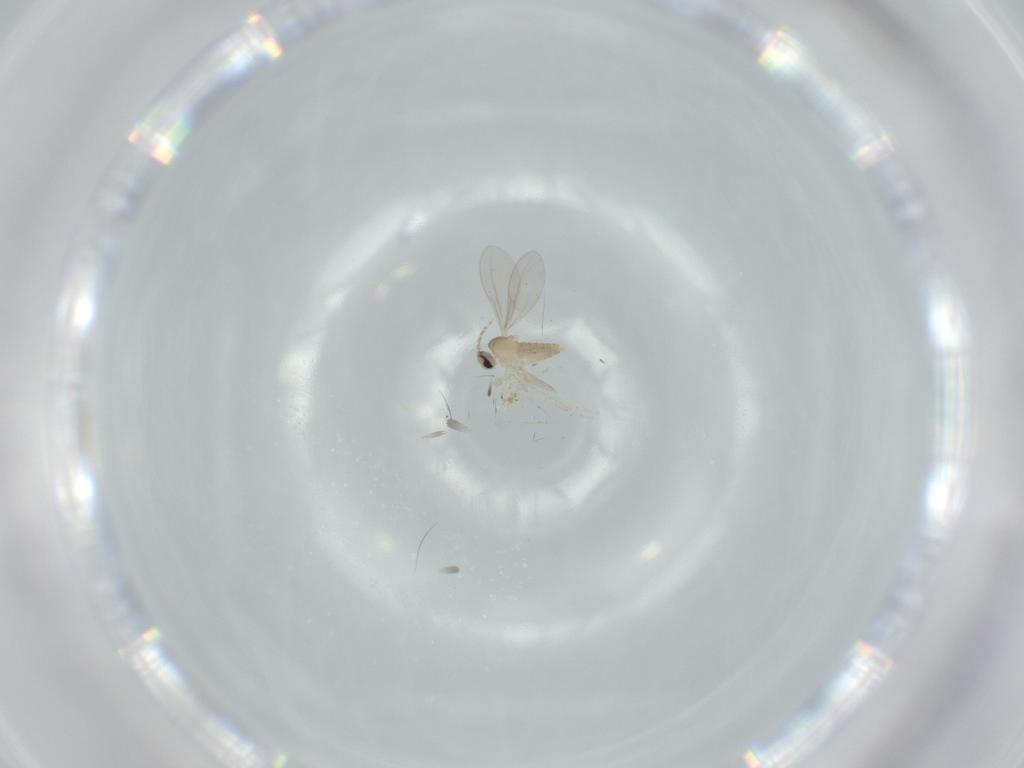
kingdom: Animalia
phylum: Arthropoda
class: Insecta
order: Diptera
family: Cecidomyiidae
